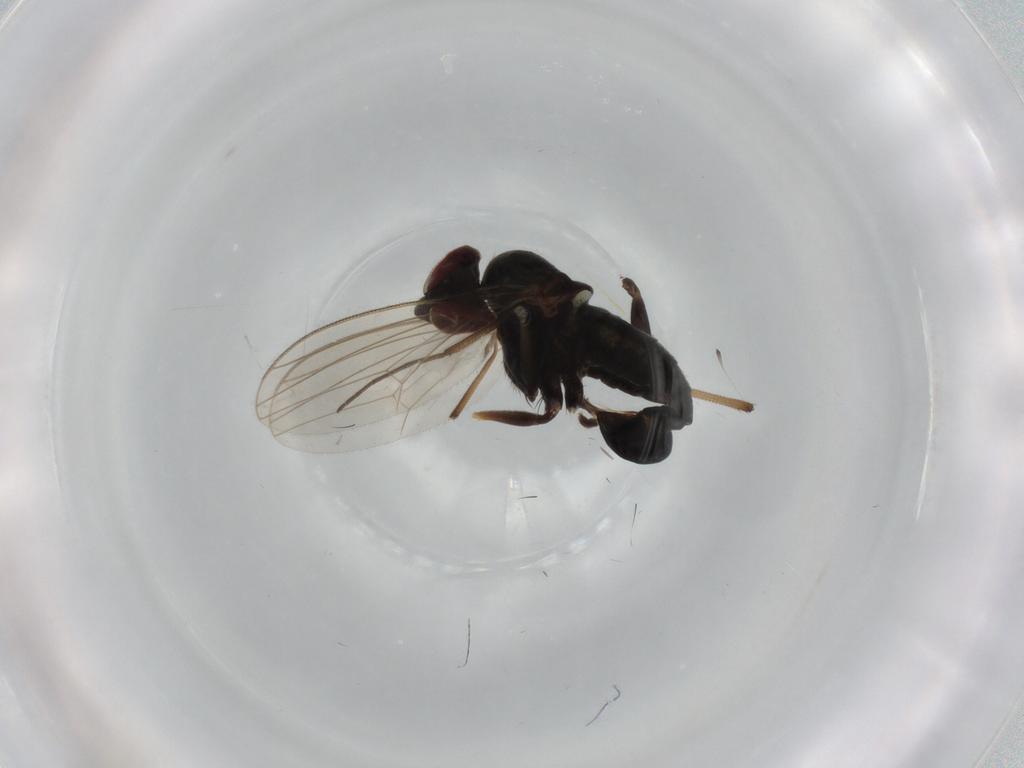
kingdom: Animalia
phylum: Arthropoda
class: Insecta
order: Diptera
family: Dolichopodidae
